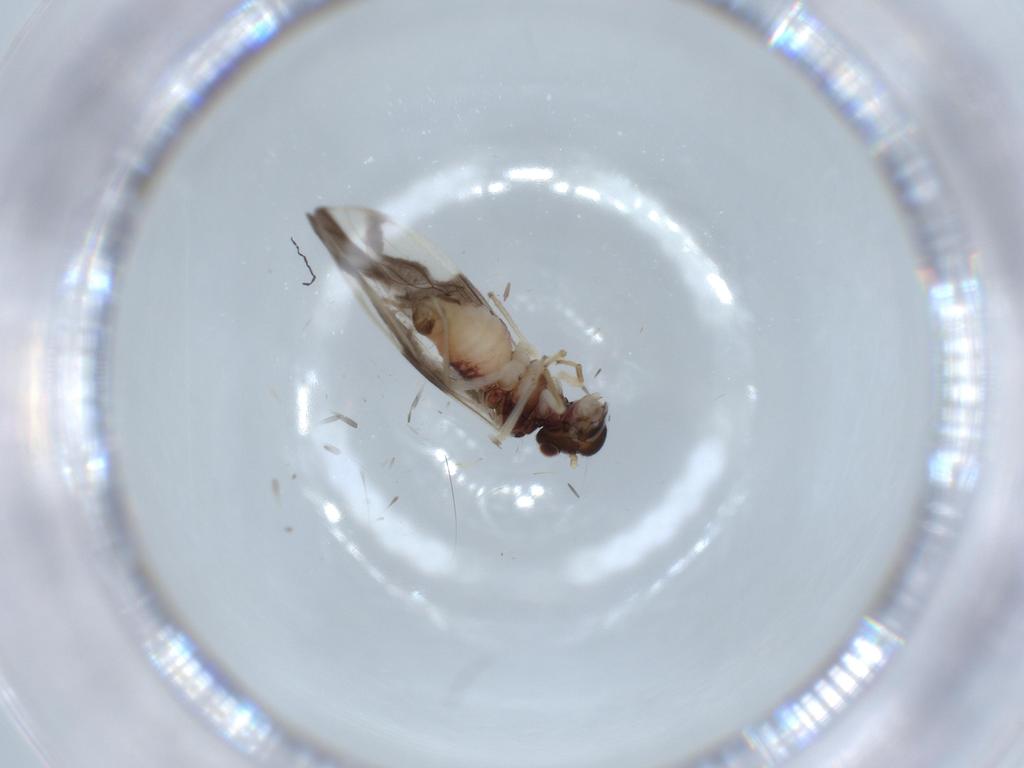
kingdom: Animalia
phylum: Arthropoda
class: Insecta
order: Psocodea
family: Caeciliusidae
